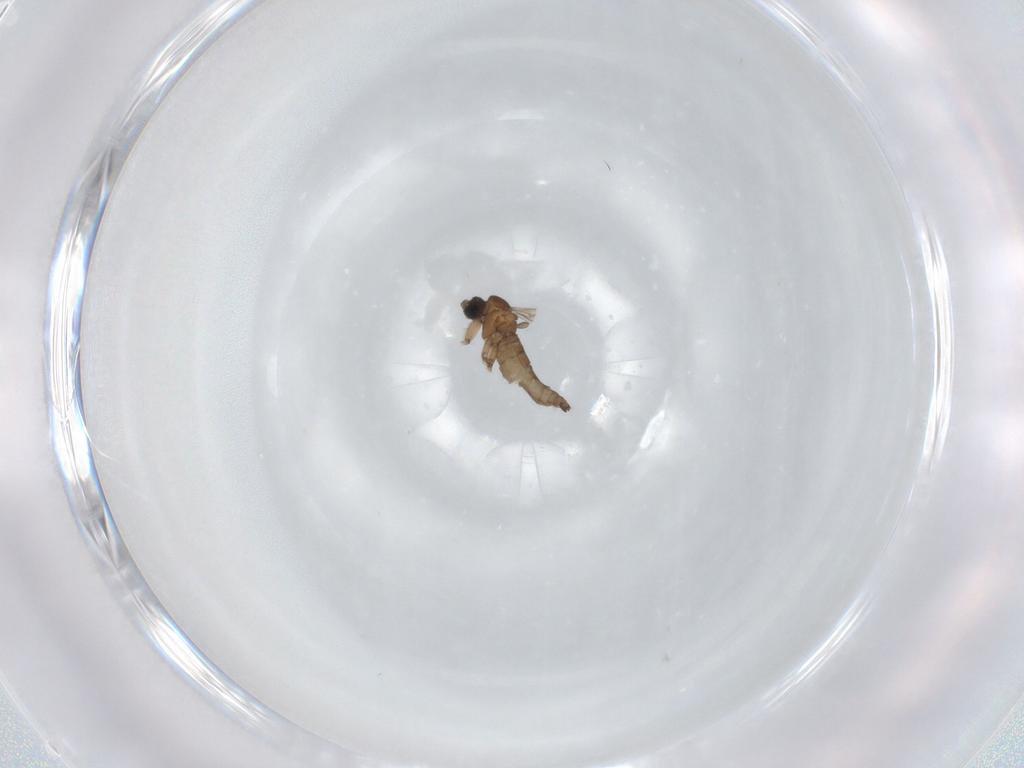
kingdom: Animalia
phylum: Arthropoda
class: Insecta
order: Diptera
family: Sciaridae
